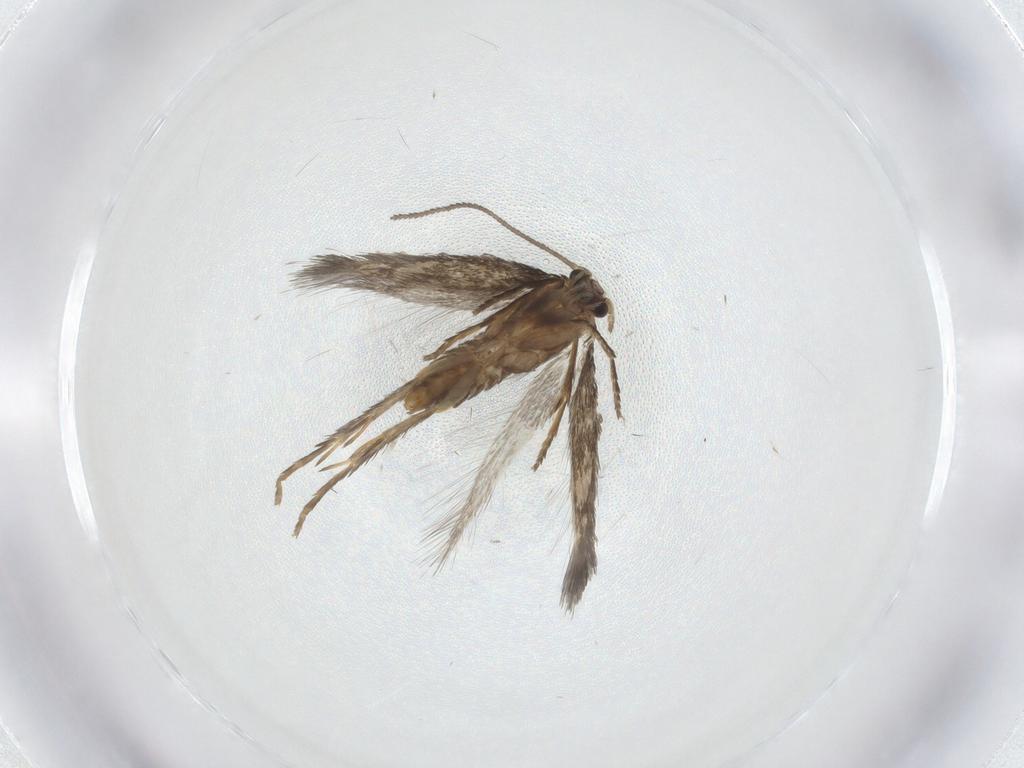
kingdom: Animalia
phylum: Arthropoda
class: Insecta
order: Lepidoptera
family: Nepticulidae
